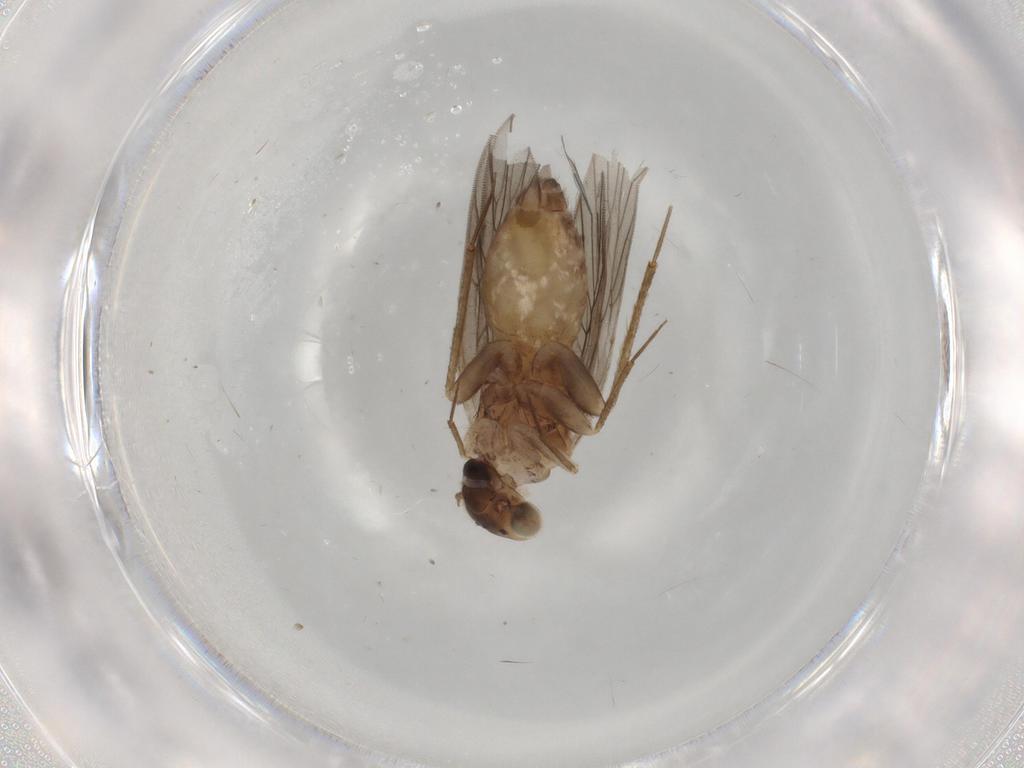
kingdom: Animalia
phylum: Arthropoda
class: Insecta
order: Psocodea
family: Lepidopsocidae
